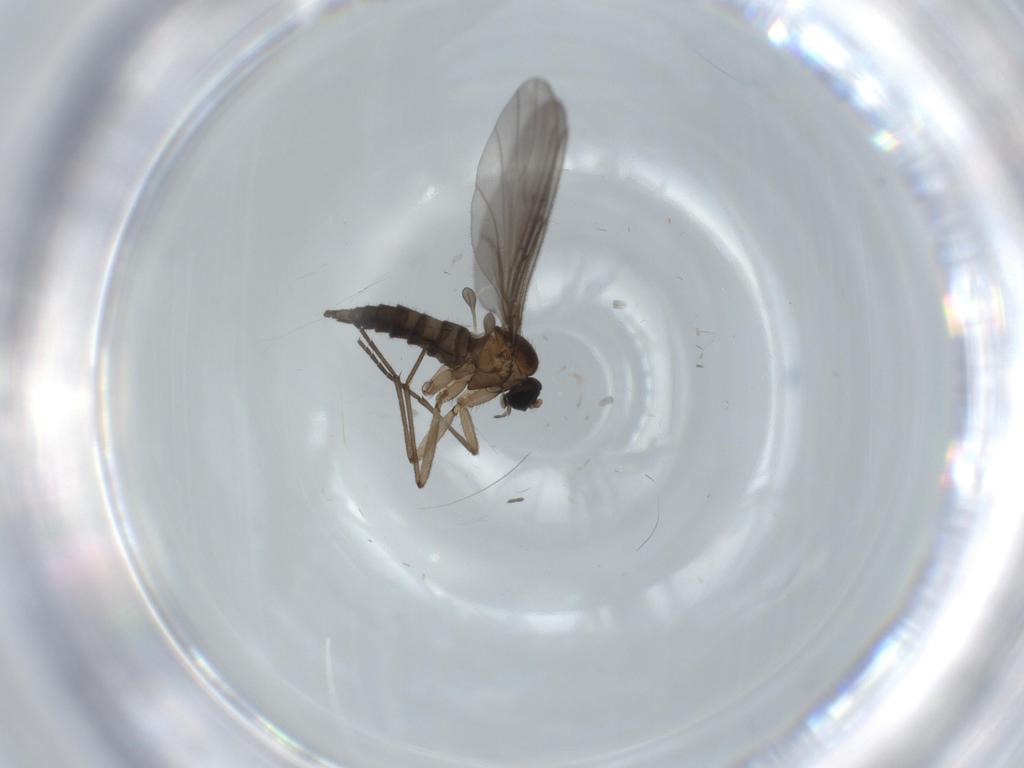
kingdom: Animalia
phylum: Arthropoda
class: Insecta
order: Diptera
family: Sciaridae
